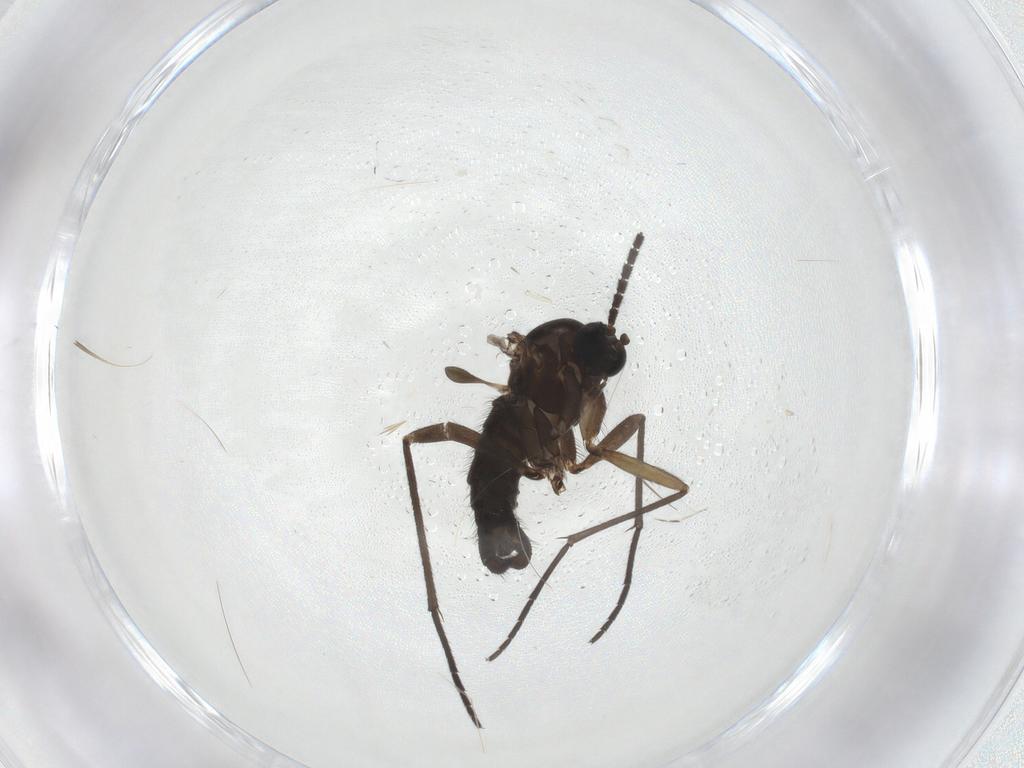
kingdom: Animalia
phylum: Arthropoda
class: Insecta
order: Diptera
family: Sciaridae
